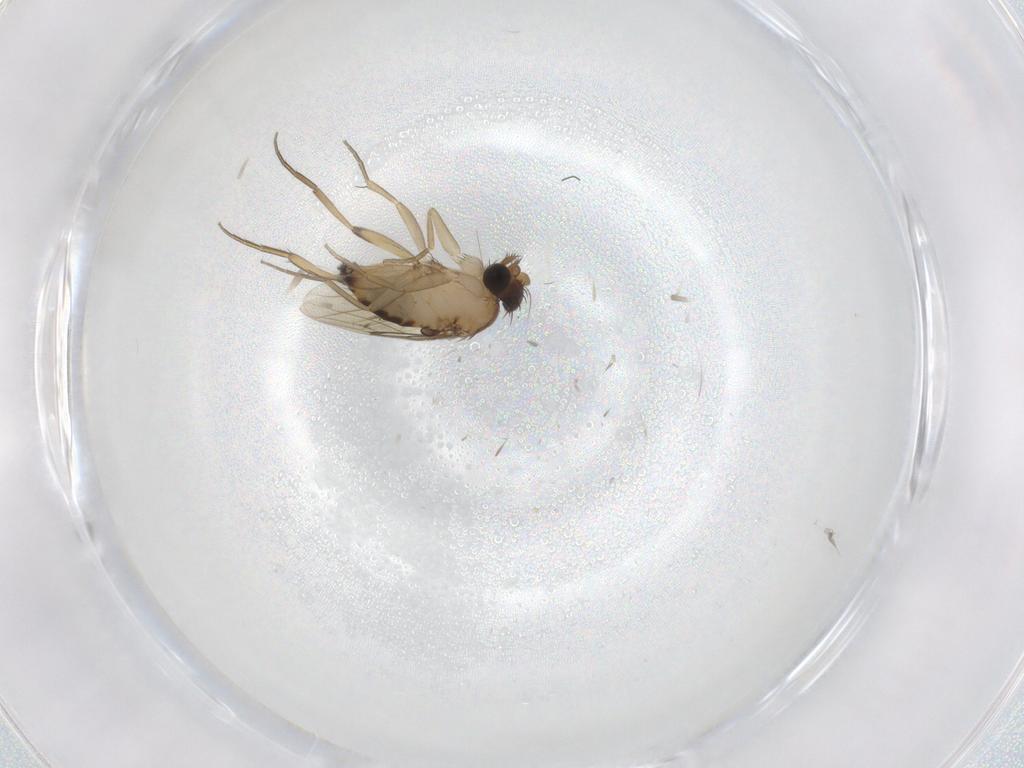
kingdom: Animalia
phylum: Arthropoda
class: Insecta
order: Diptera
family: Phoridae
